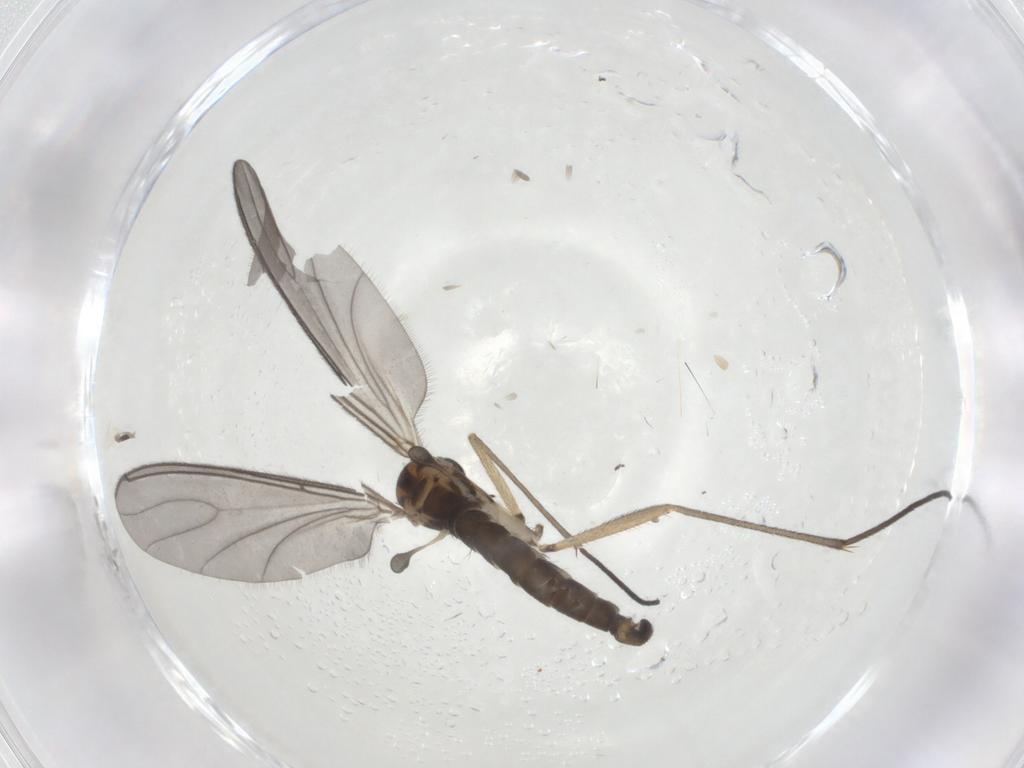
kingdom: Animalia
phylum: Arthropoda
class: Insecta
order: Diptera
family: Sciaridae
